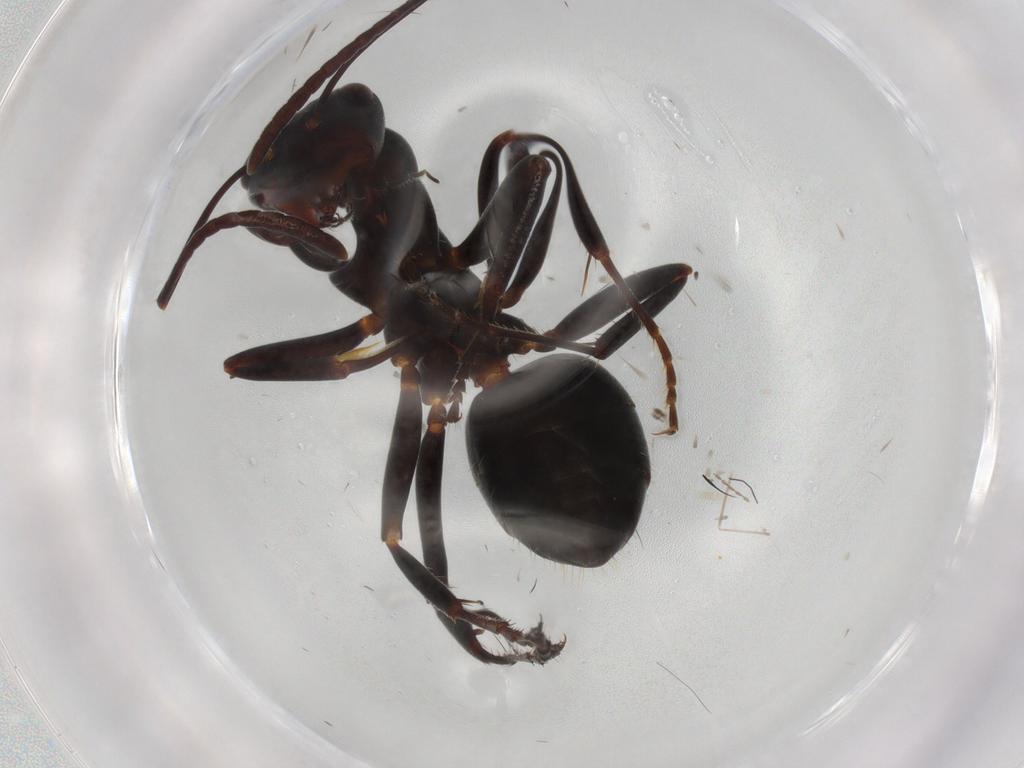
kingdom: Animalia
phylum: Arthropoda
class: Insecta
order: Hymenoptera
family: Formicidae
